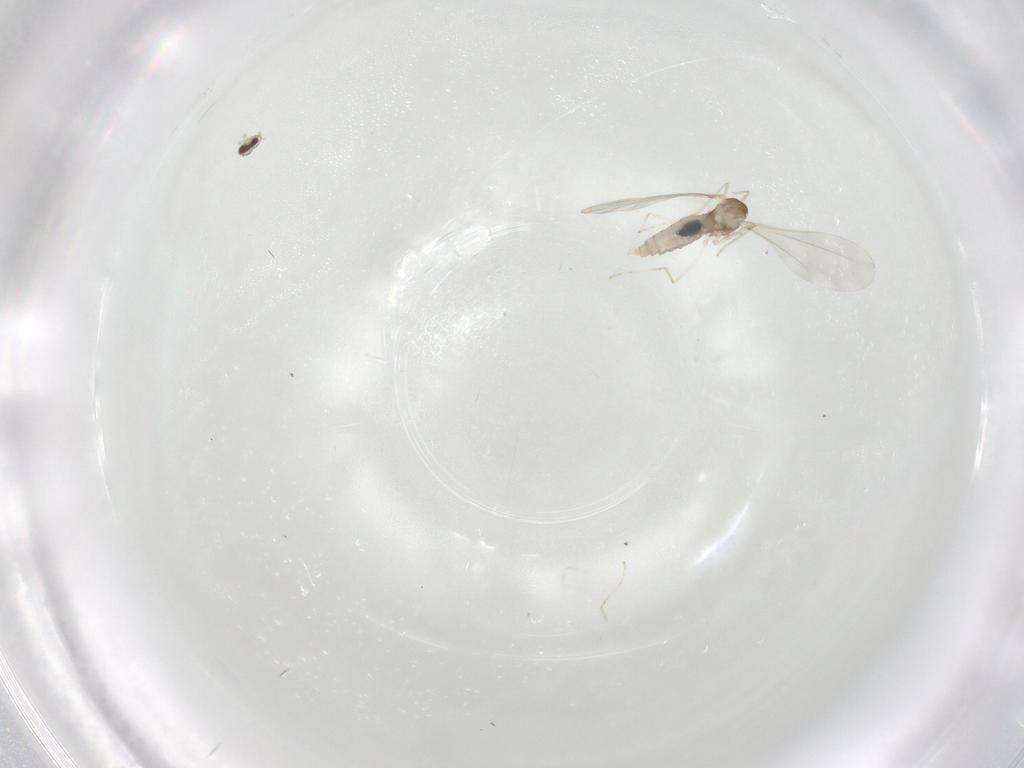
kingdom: Animalia
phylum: Arthropoda
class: Insecta
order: Diptera
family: Cecidomyiidae
